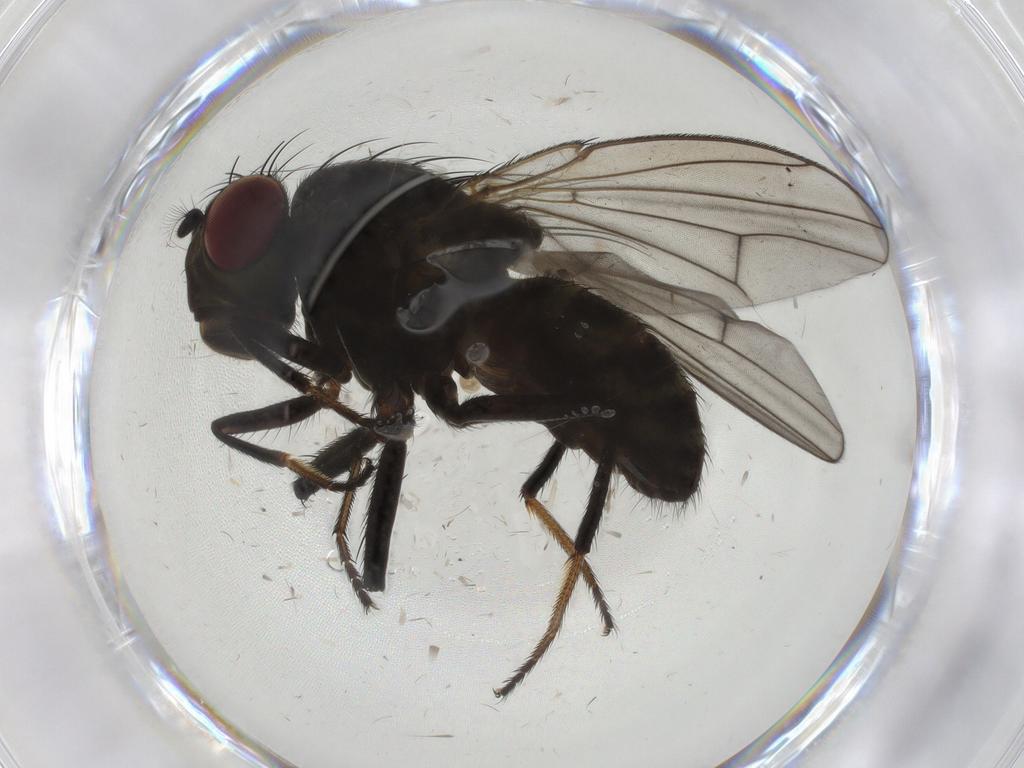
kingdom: Animalia
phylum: Arthropoda
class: Insecta
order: Diptera
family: Ephydridae
